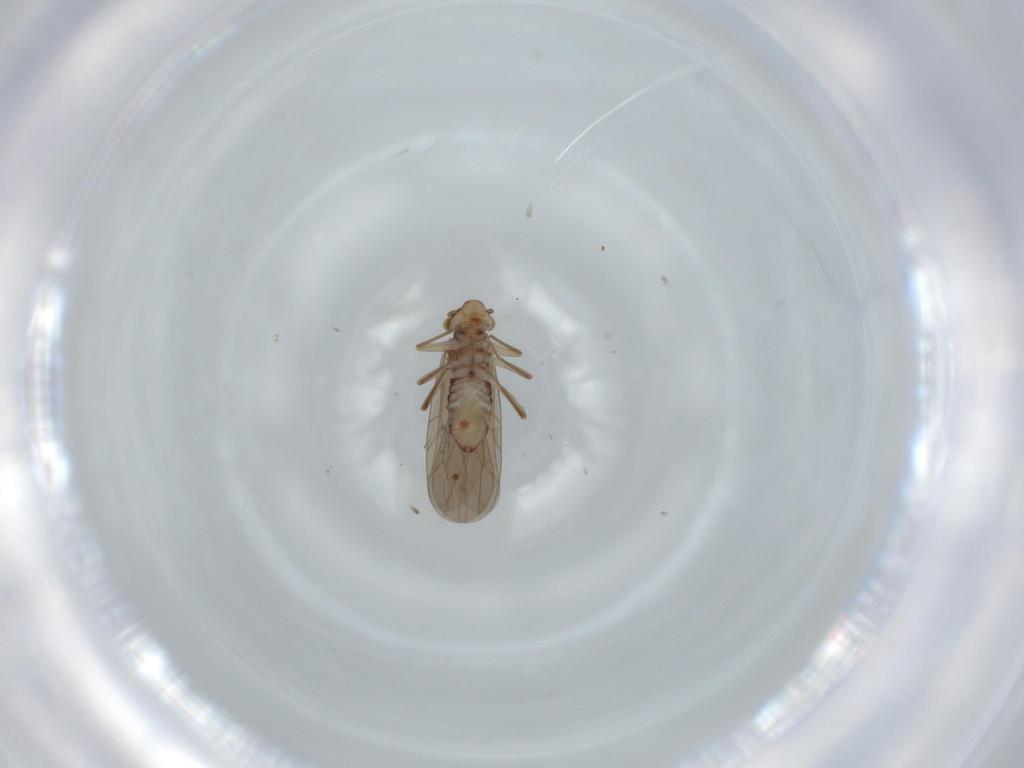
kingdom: Animalia
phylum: Arthropoda
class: Insecta
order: Psocodea
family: Lepidopsocidae
